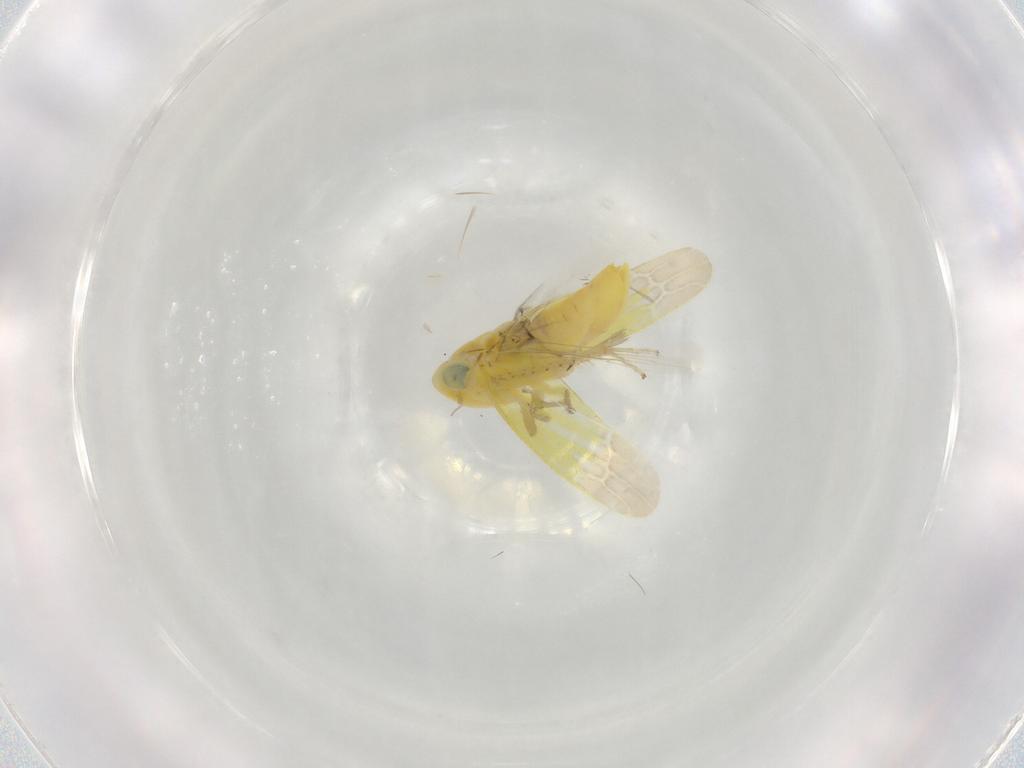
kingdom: Animalia
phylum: Arthropoda
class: Insecta
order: Hemiptera
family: Cicadellidae
